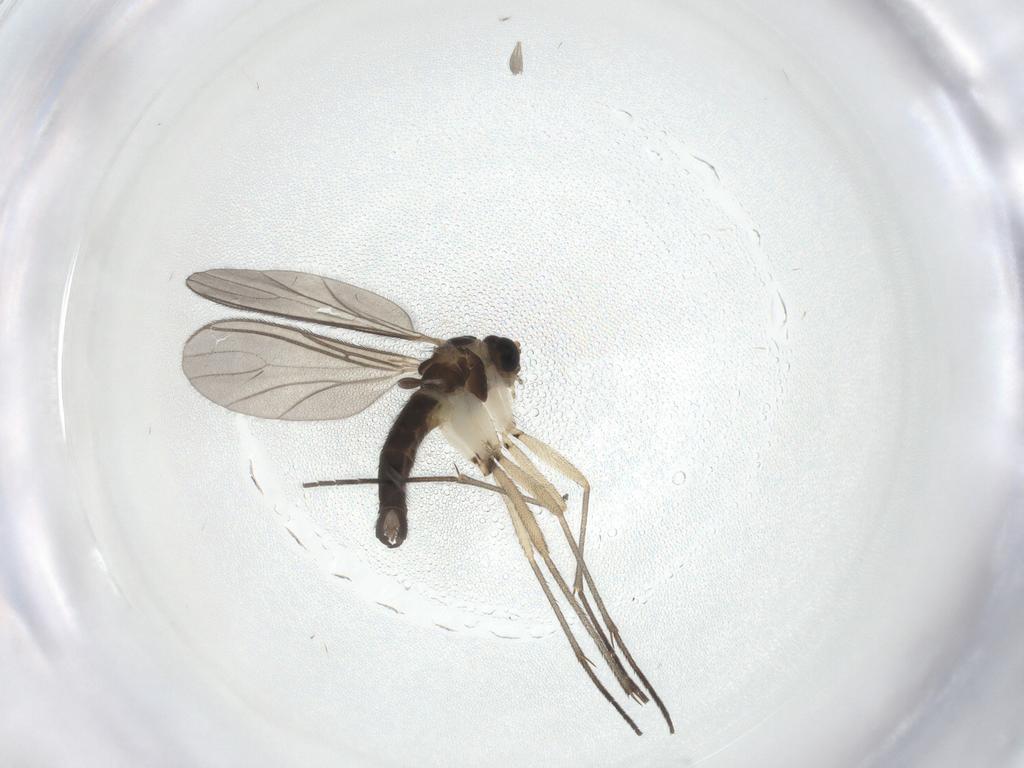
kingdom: Animalia
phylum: Arthropoda
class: Insecta
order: Diptera
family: Sciaridae
